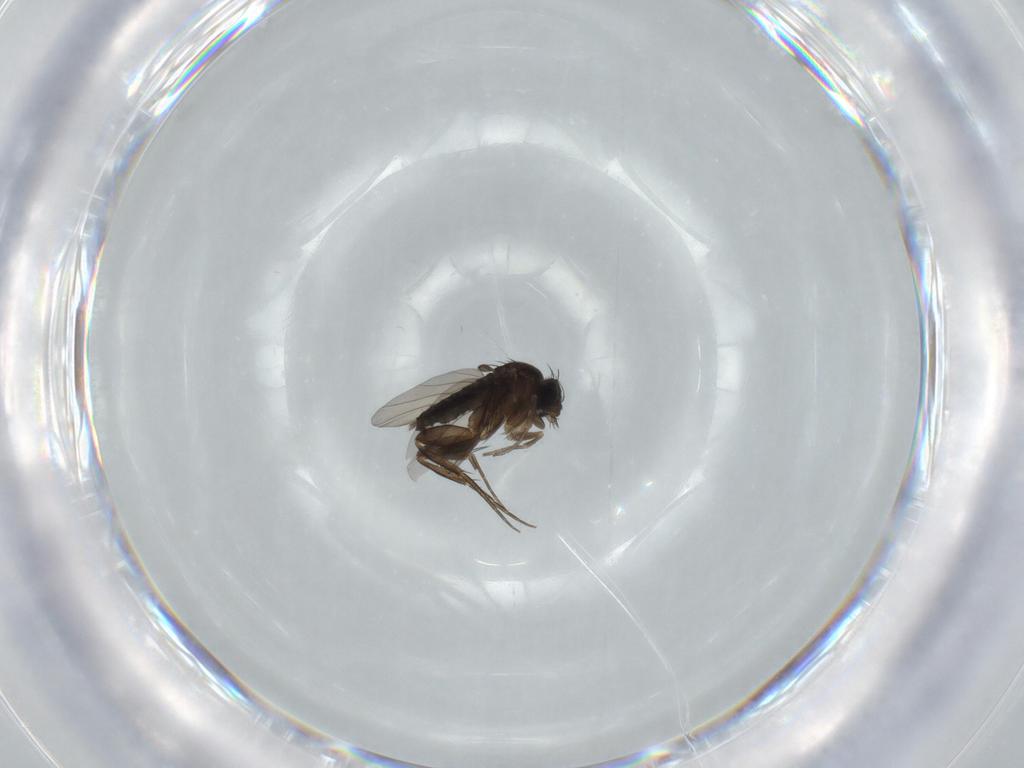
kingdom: Animalia
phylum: Arthropoda
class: Insecta
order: Diptera
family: Phoridae
